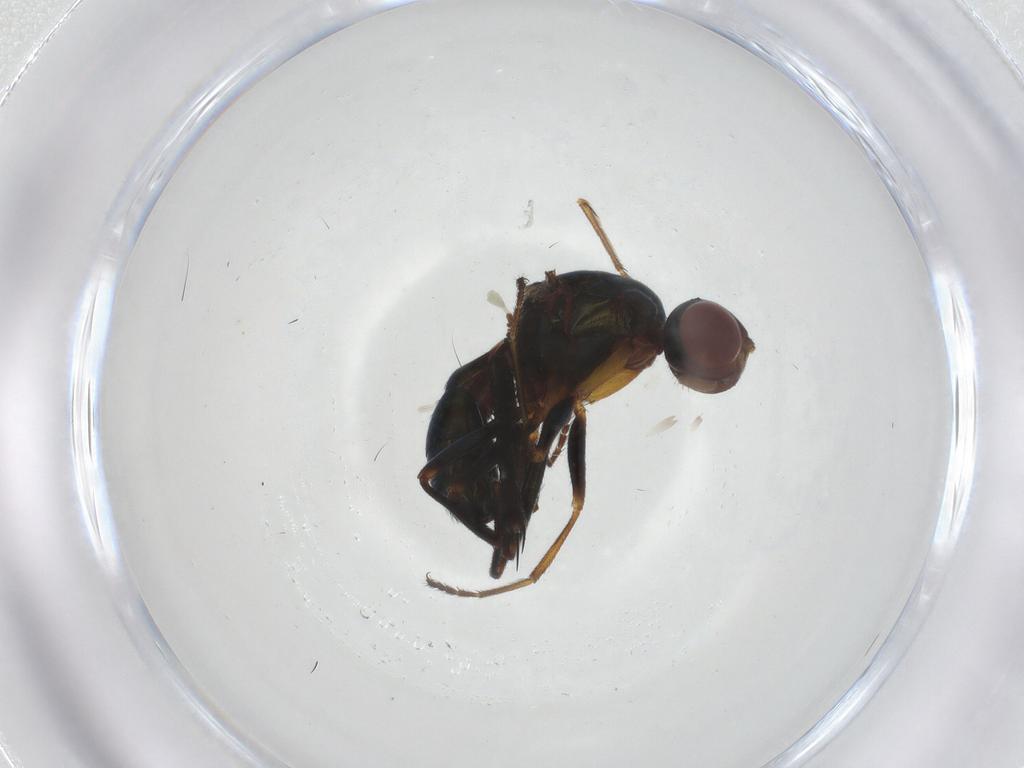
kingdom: Animalia
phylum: Arthropoda
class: Insecta
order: Diptera
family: Sepsidae
